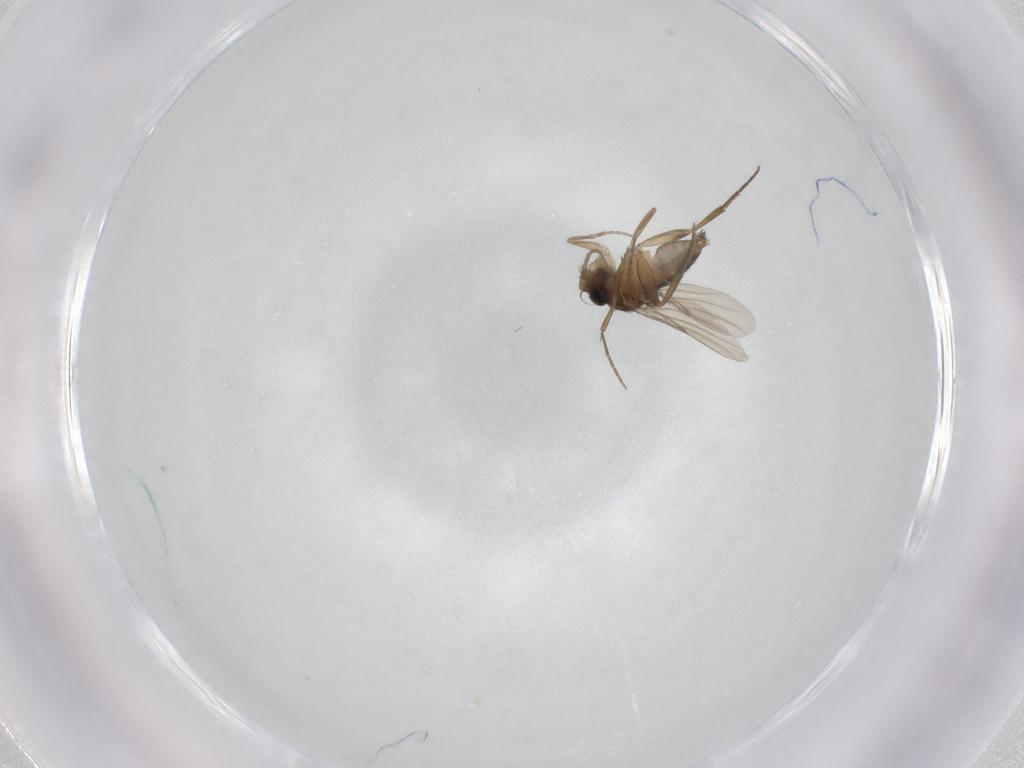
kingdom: Animalia
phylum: Arthropoda
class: Insecta
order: Diptera
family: Phoridae
